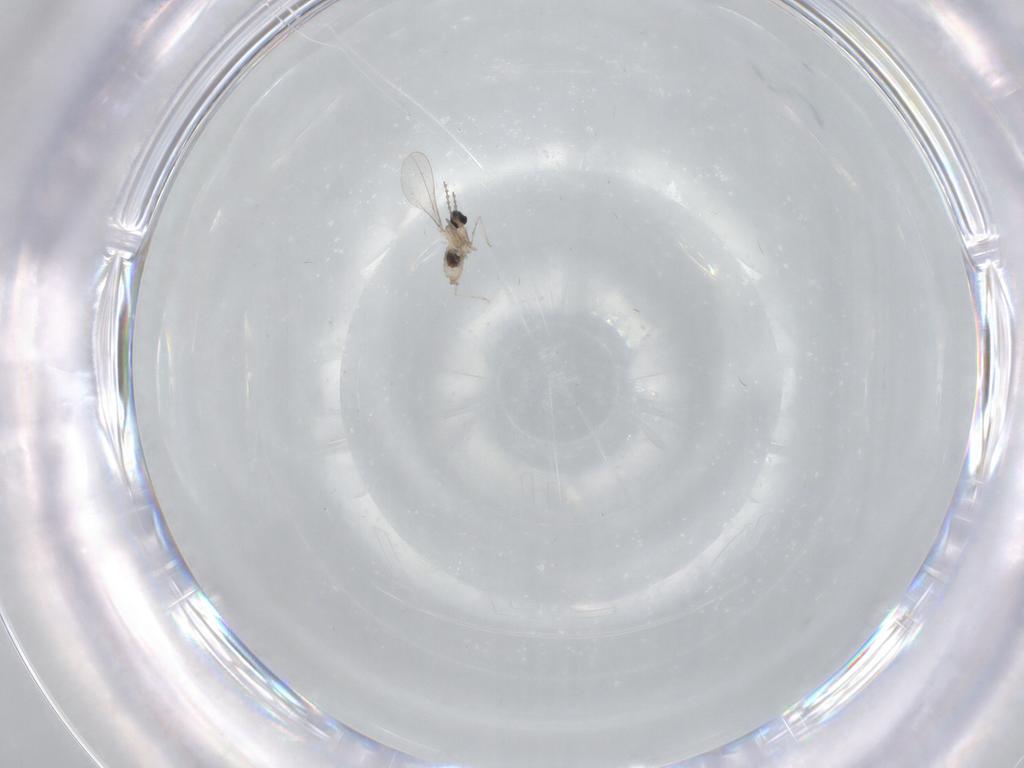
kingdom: Animalia
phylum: Arthropoda
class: Insecta
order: Diptera
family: Cecidomyiidae
